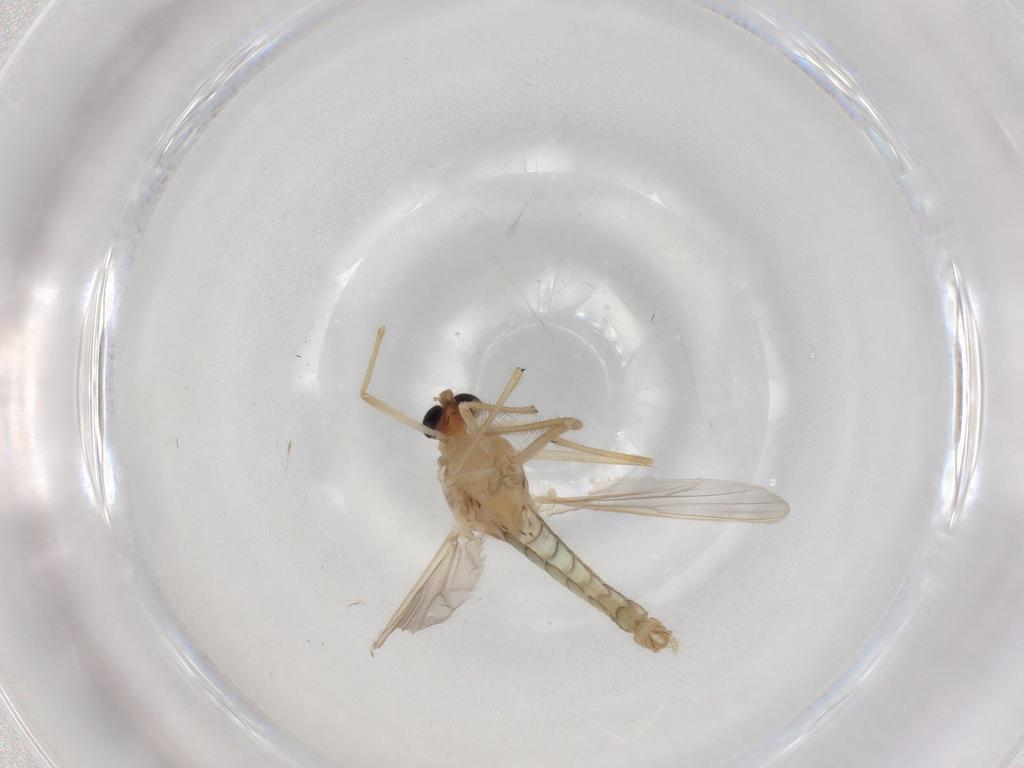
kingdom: Animalia
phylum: Arthropoda
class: Insecta
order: Diptera
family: Chironomidae
